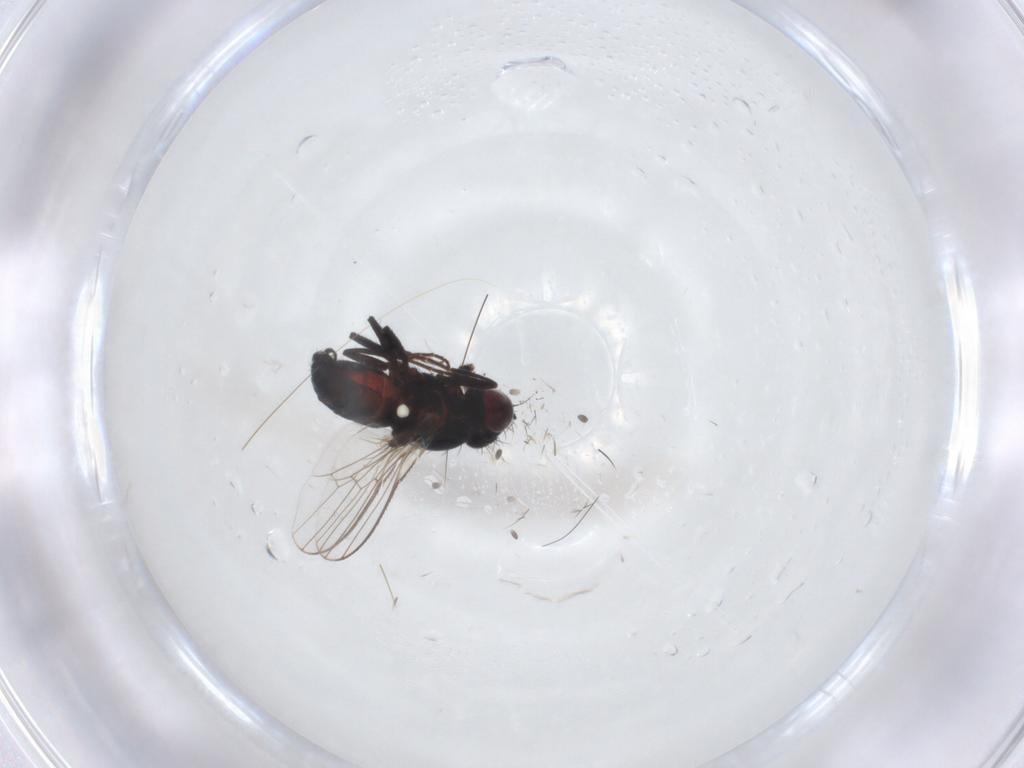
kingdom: Animalia
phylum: Arthropoda
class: Insecta
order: Diptera
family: Carnidae
